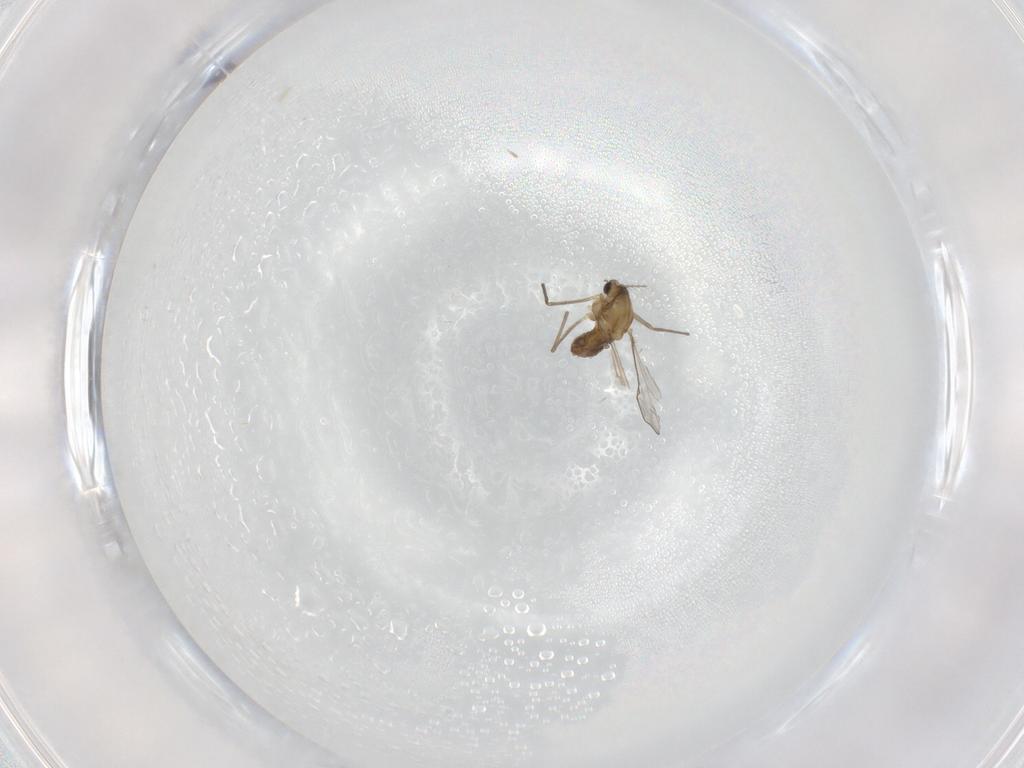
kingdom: Animalia
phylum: Arthropoda
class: Insecta
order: Diptera
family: Chironomidae
